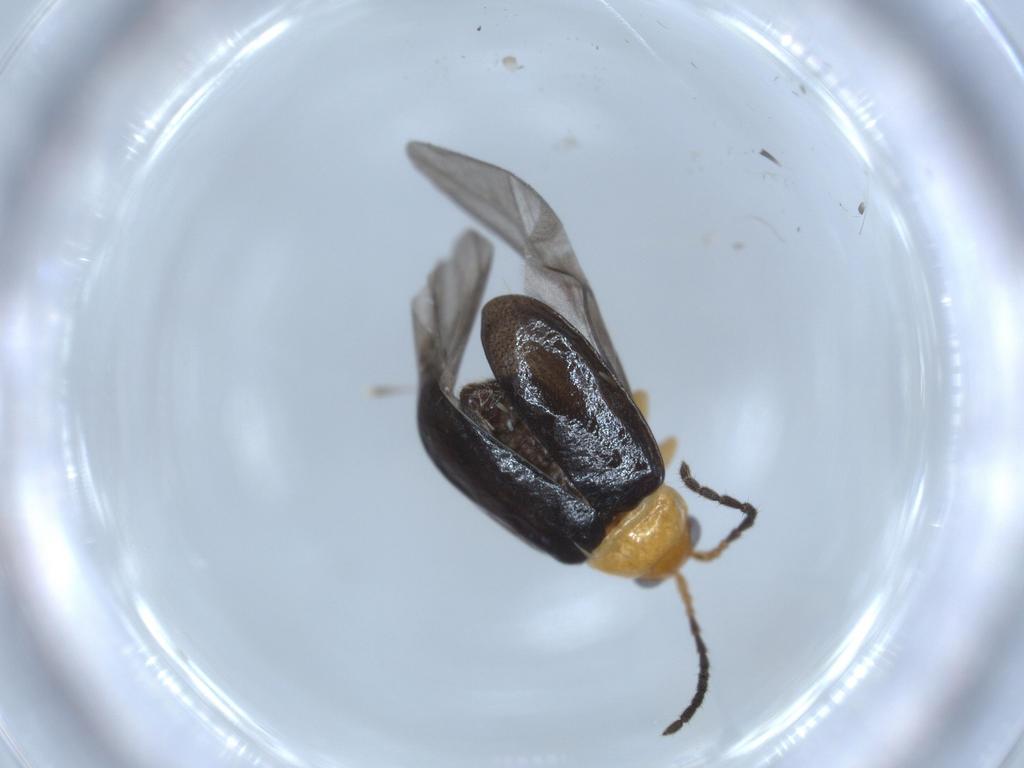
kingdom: Animalia
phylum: Arthropoda
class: Insecta
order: Coleoptera
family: Chrysomelidae
